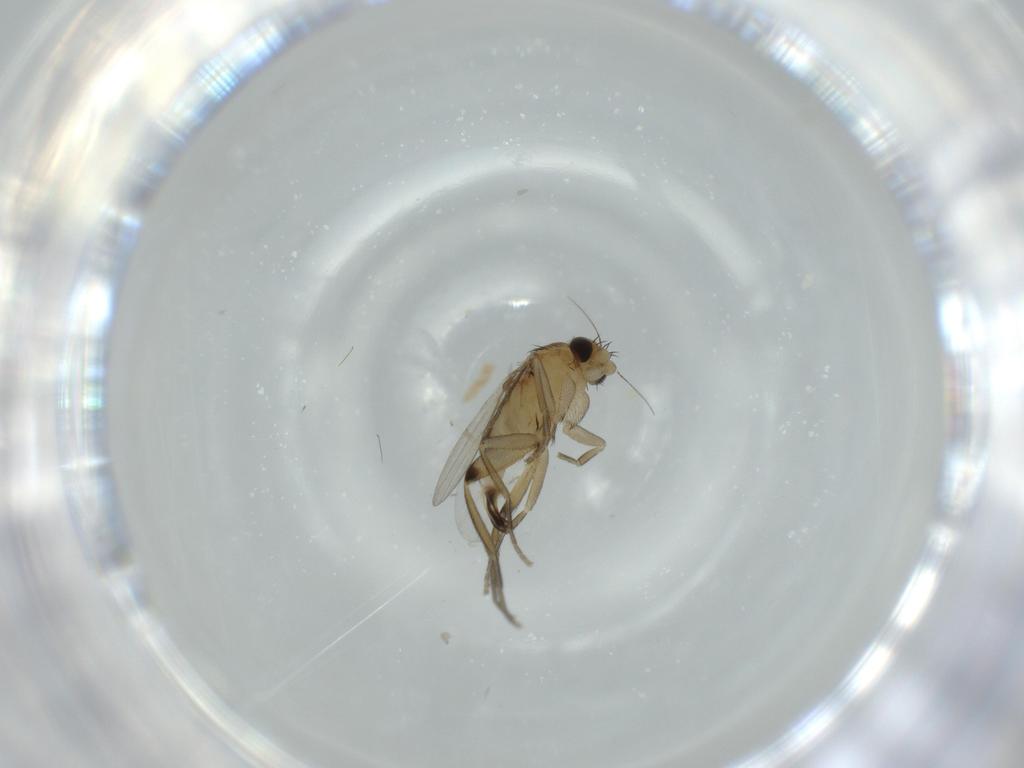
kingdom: Animalia
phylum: Arthropoda
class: Insecta
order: Diptera
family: Phoridae
